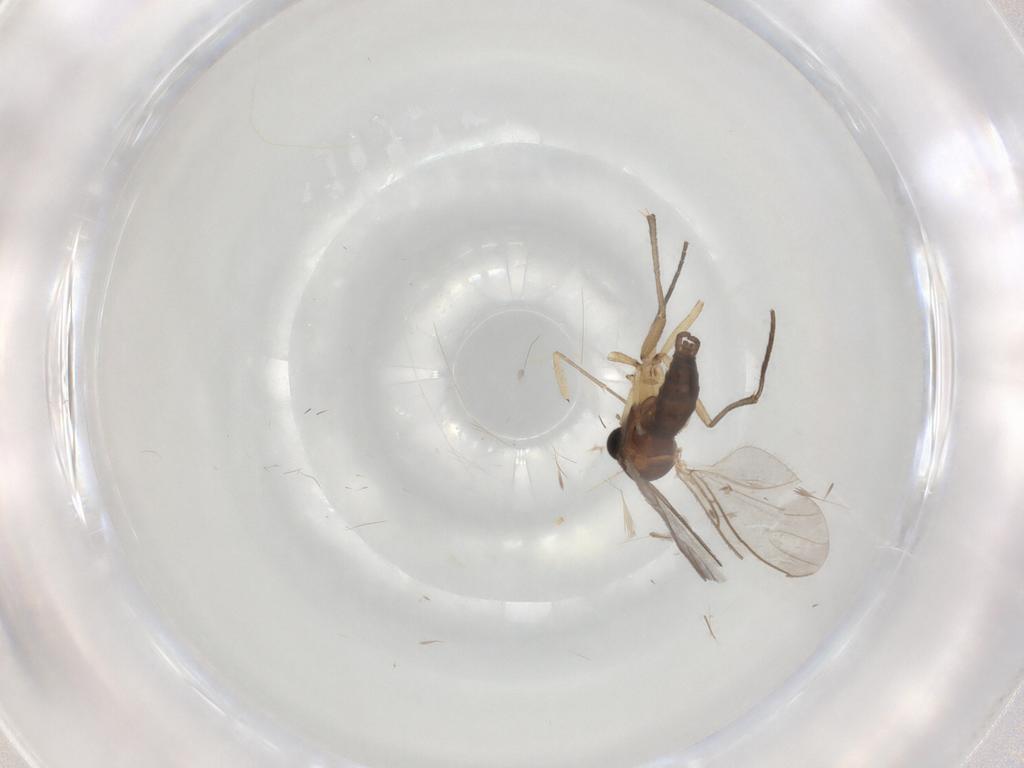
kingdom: Animalia
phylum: Arthropoda
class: Insecta
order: Diptera
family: Sciaridae
